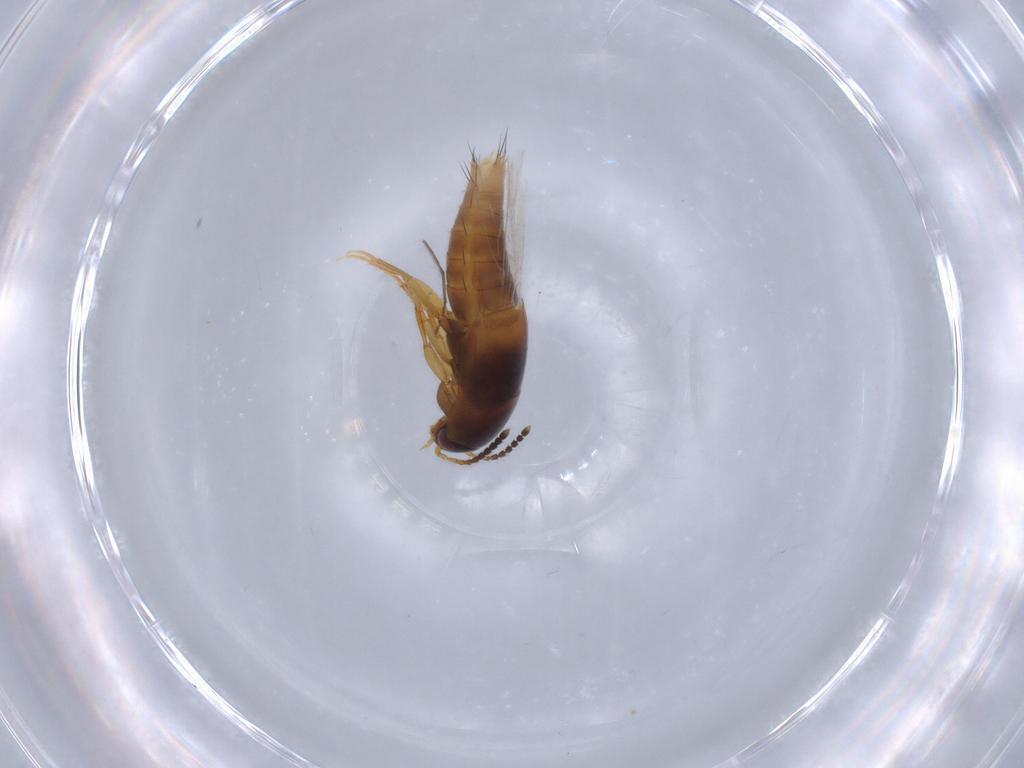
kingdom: Animalia
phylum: Arthropoda
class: Insecta
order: Coleoptera
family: Staphylinidae
